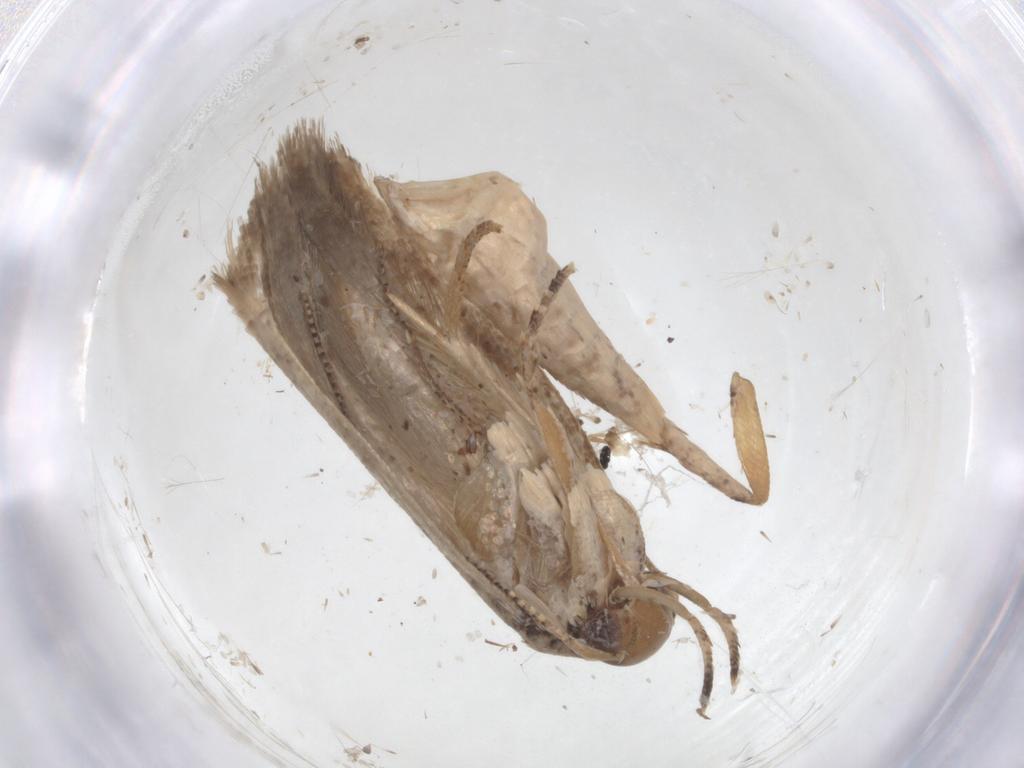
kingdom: Animalia
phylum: Arthropoda
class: Insecta
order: Lepidoptera
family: Gelechiidae
